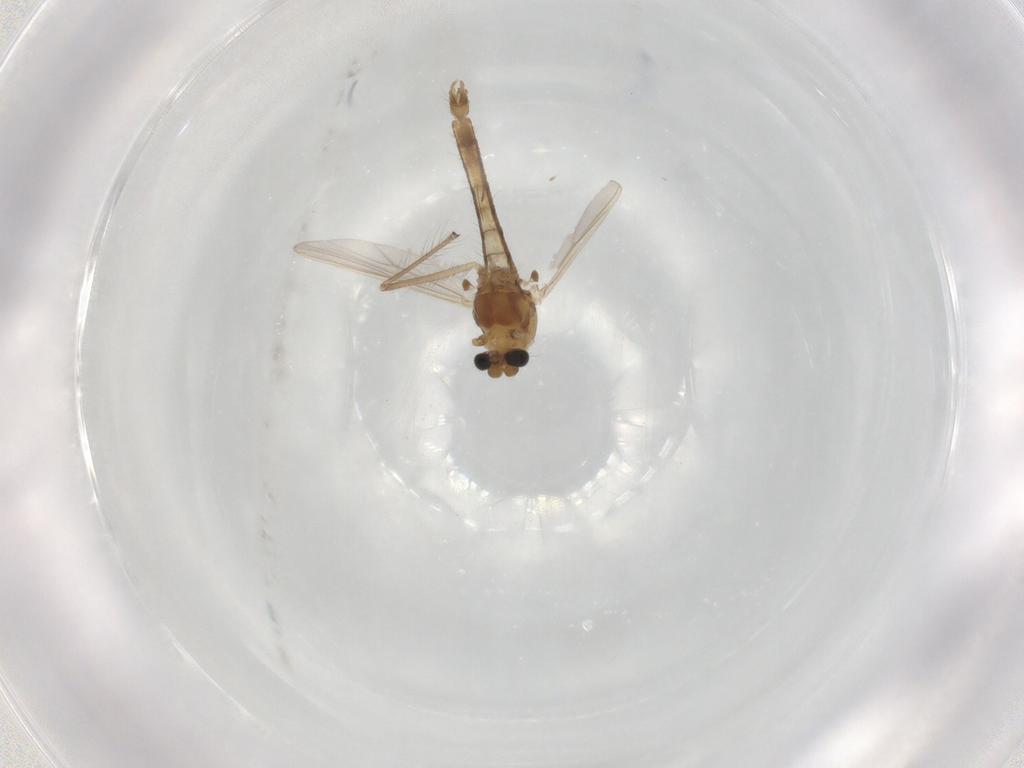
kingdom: Animalia
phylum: Arthropoda
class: Insecta
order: Diptera
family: Chironomidae
